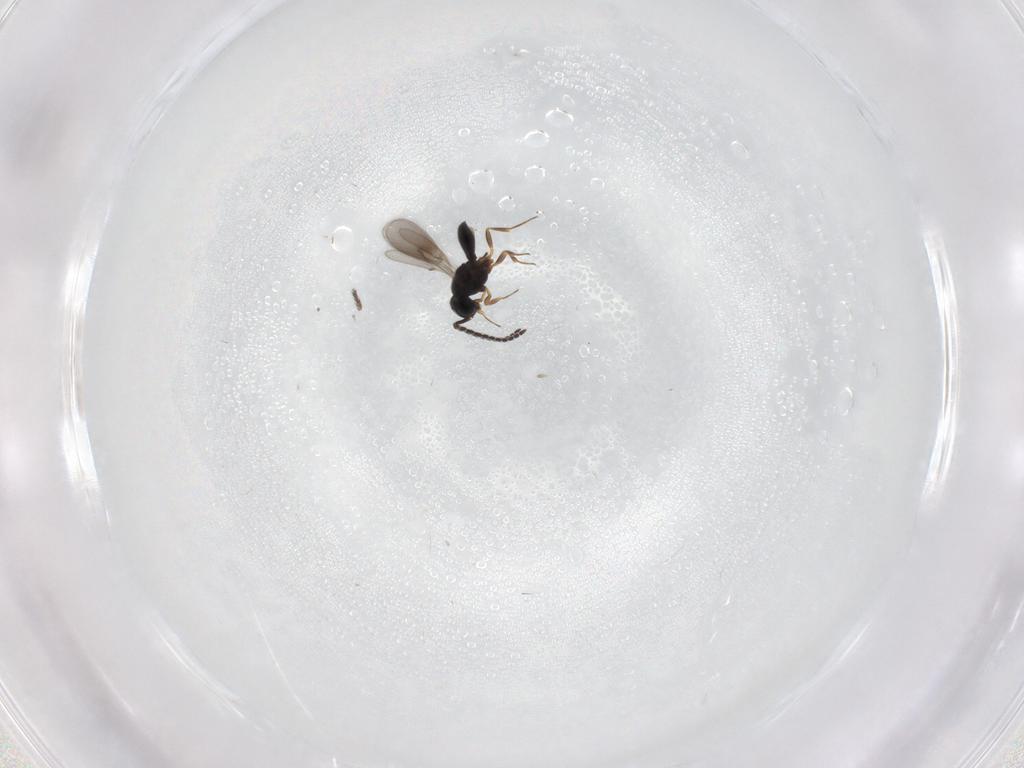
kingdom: Animalia
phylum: Arthropoda
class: Insecta
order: Hymenoptera
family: Scelionidae
